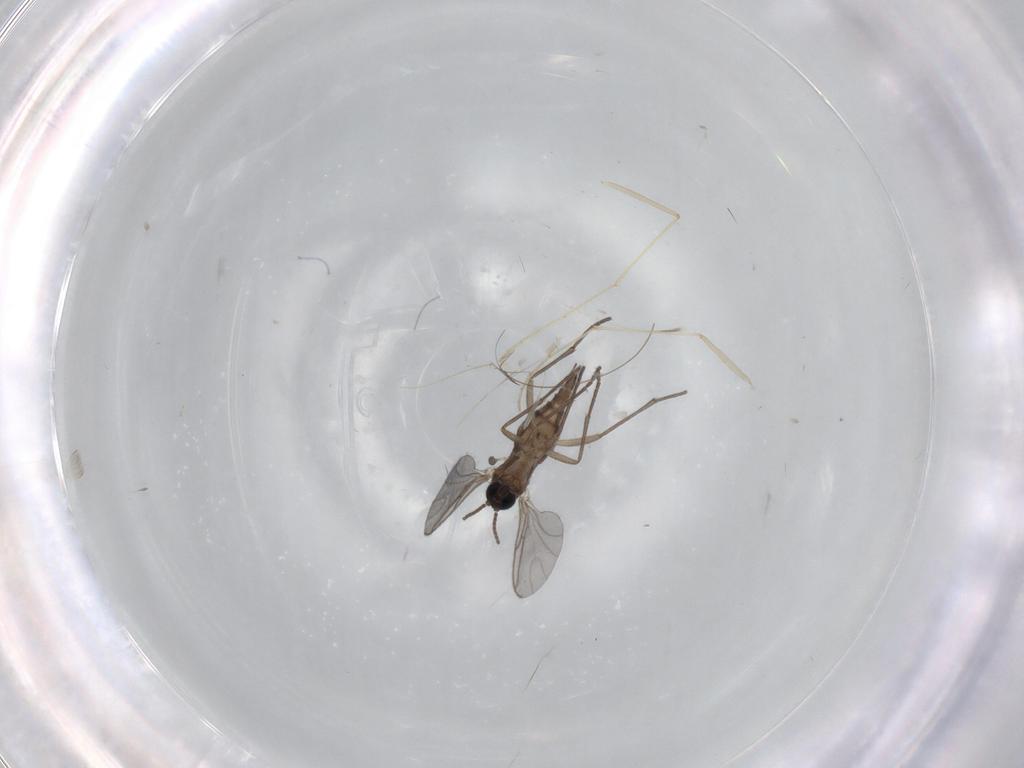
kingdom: Animalia
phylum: Arthropoda
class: Insecta
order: Diptera
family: Sciaridae
